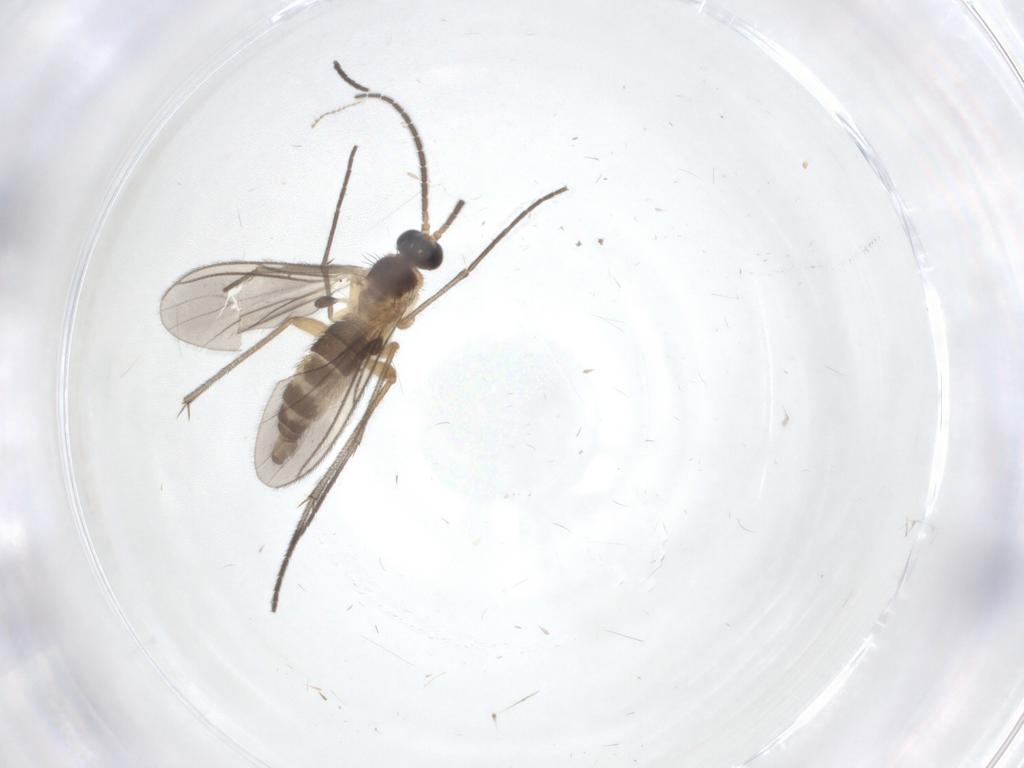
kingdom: Animalia
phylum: Arthropoda
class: Insecta
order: Diptera
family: Sciaridae
